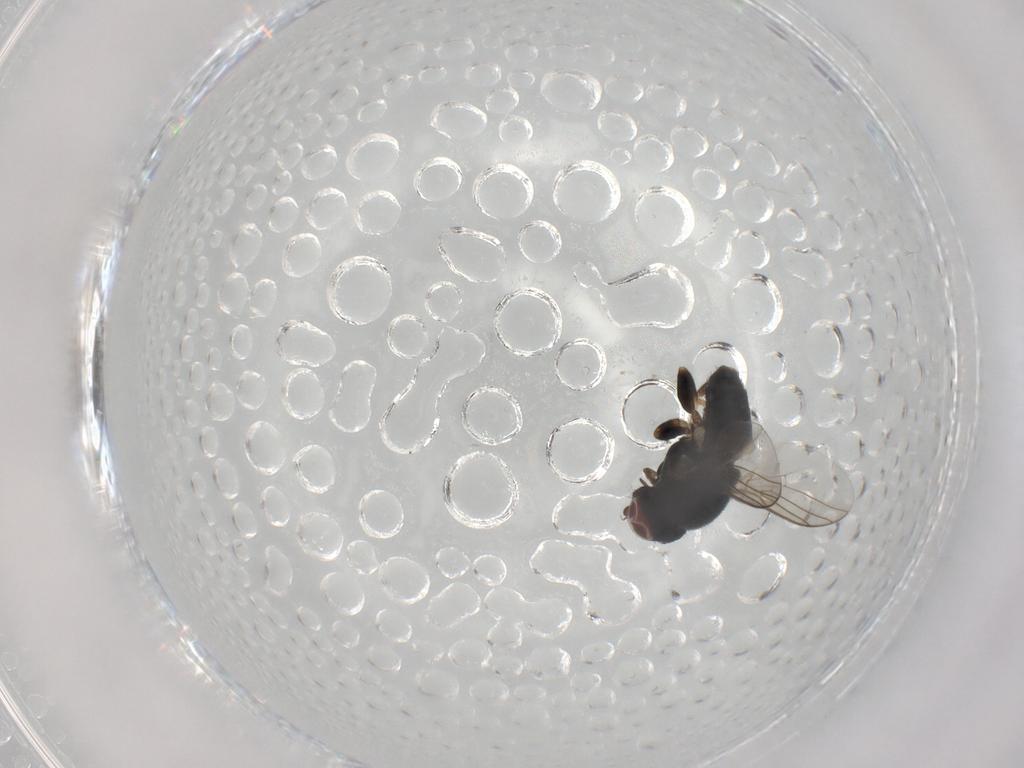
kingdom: Animalia
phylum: Arthropoda
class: Insecta
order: Diptera
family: Chloropidae
